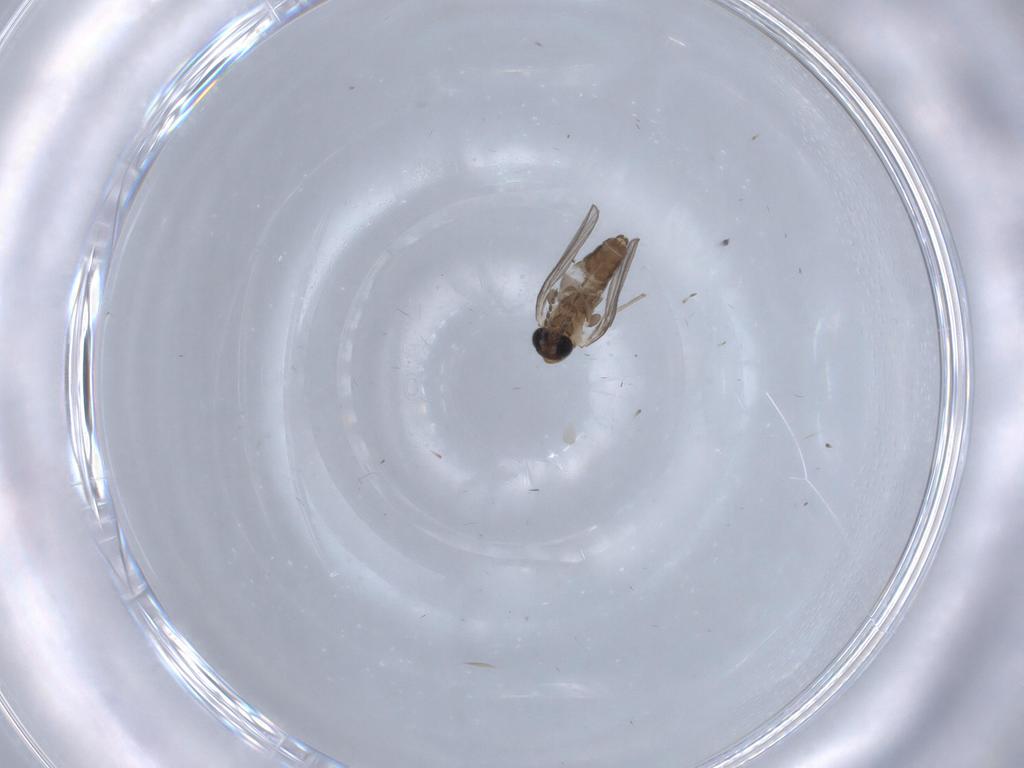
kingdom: Animalia
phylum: Arthropoda
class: Insecta
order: Diptera
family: Psychodidae
